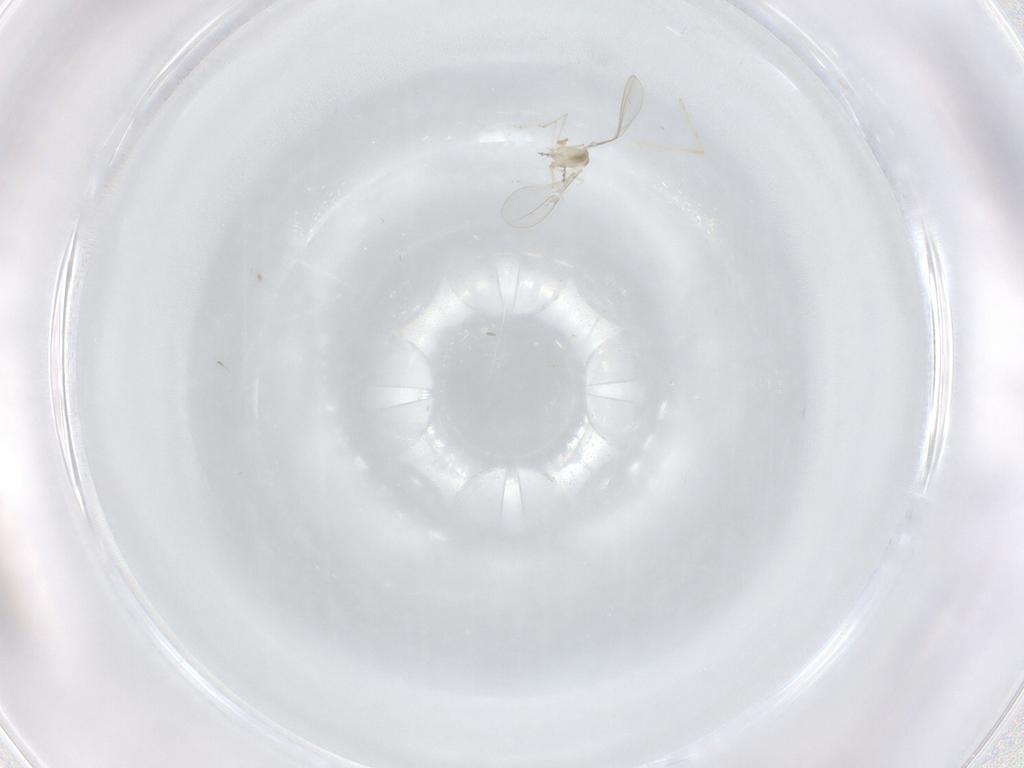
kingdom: Animalia
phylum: Arthropoda
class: Insecta
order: Diptera
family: Cecidomyiidae
